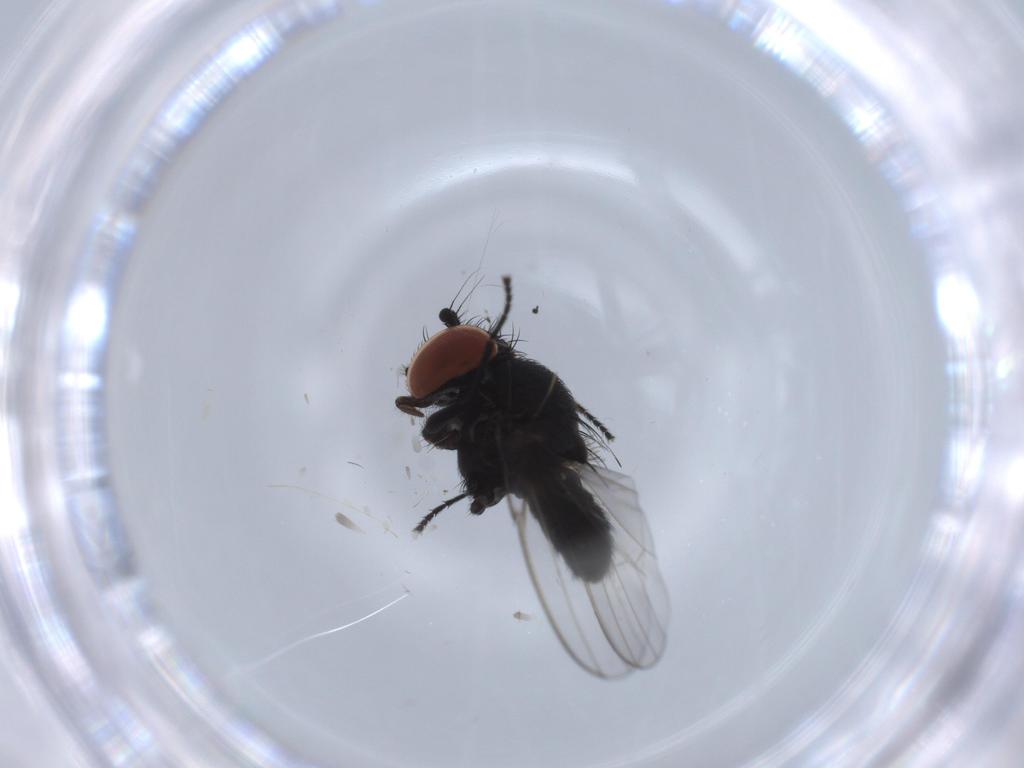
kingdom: Animalia
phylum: Arthropoda
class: Insecta
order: Diptera
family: Milichiidae
